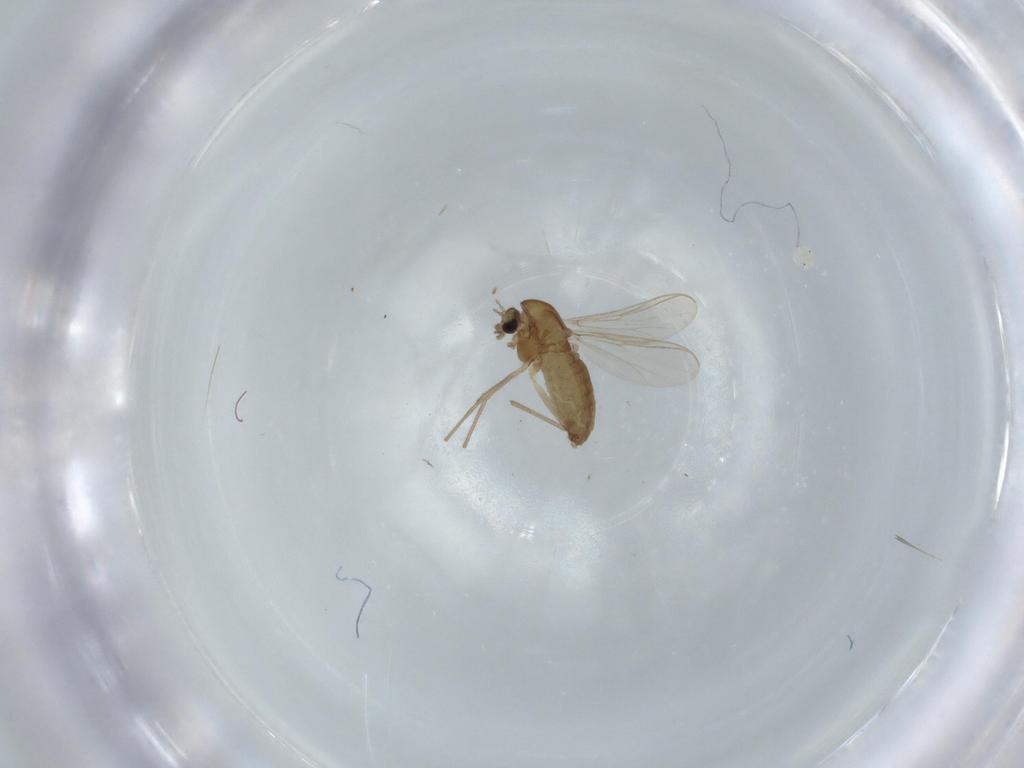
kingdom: Animalia
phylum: Arthropoda
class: Insecta
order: Diptera
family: Chironomidae
